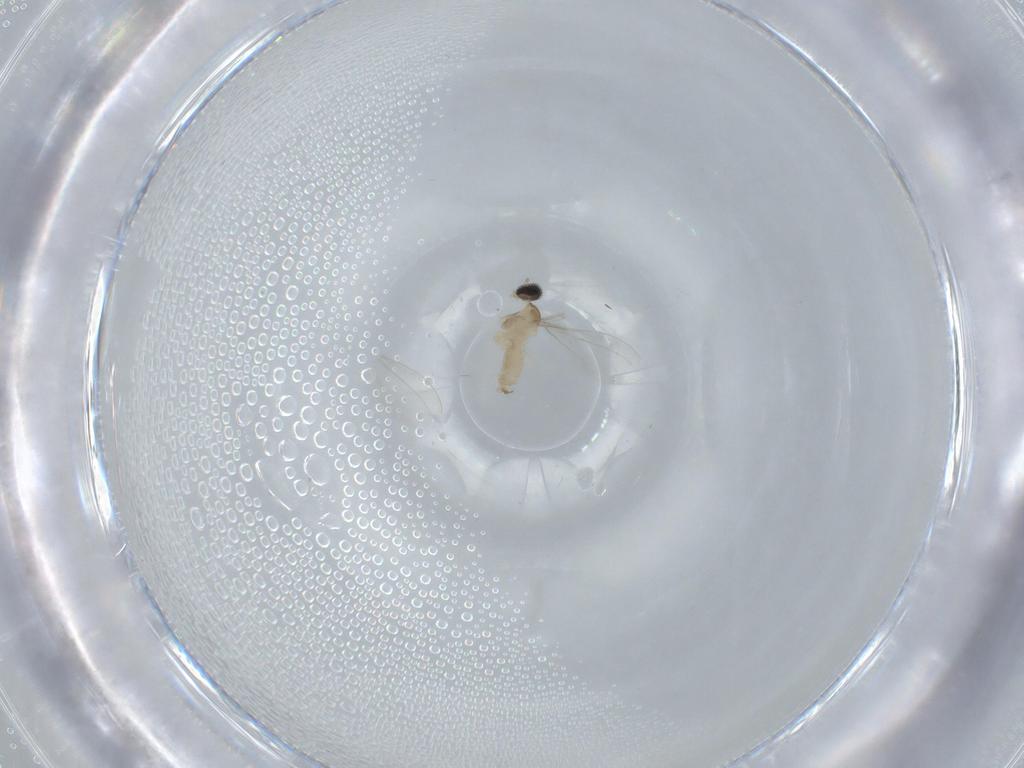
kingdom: Animalia
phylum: Arthropoda
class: Insecta
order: Diptera
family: Cecidomyiidae
